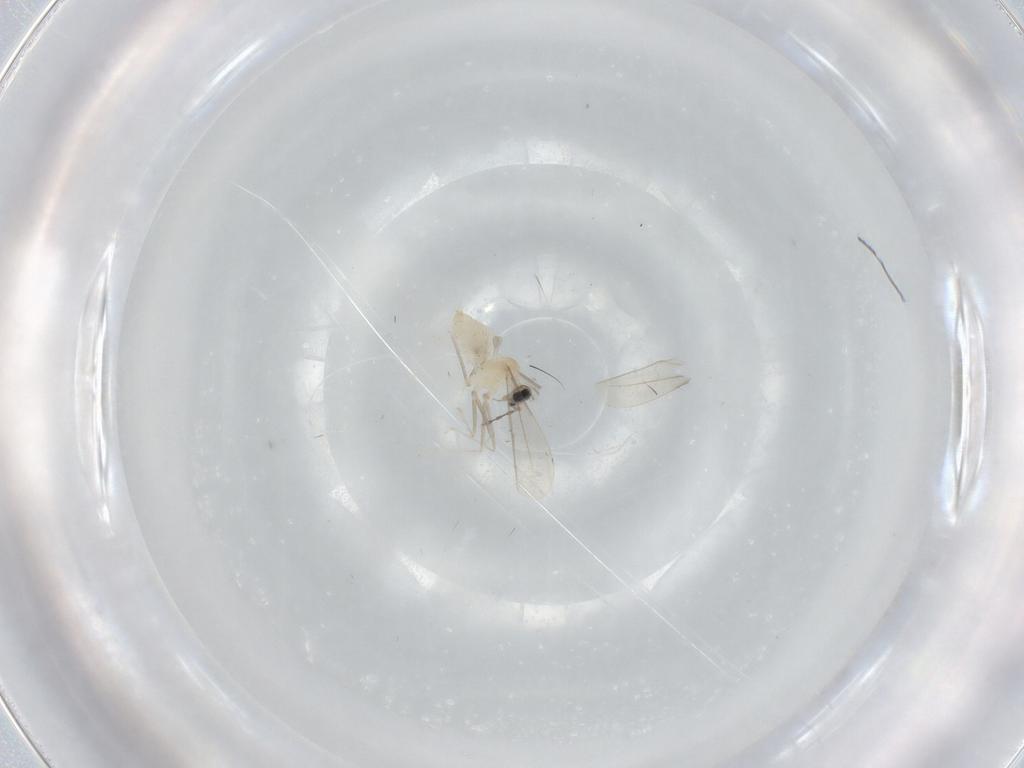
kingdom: Animalia
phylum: Arthropoda
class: Insecta
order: Diptera
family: Cecidomyiidae
